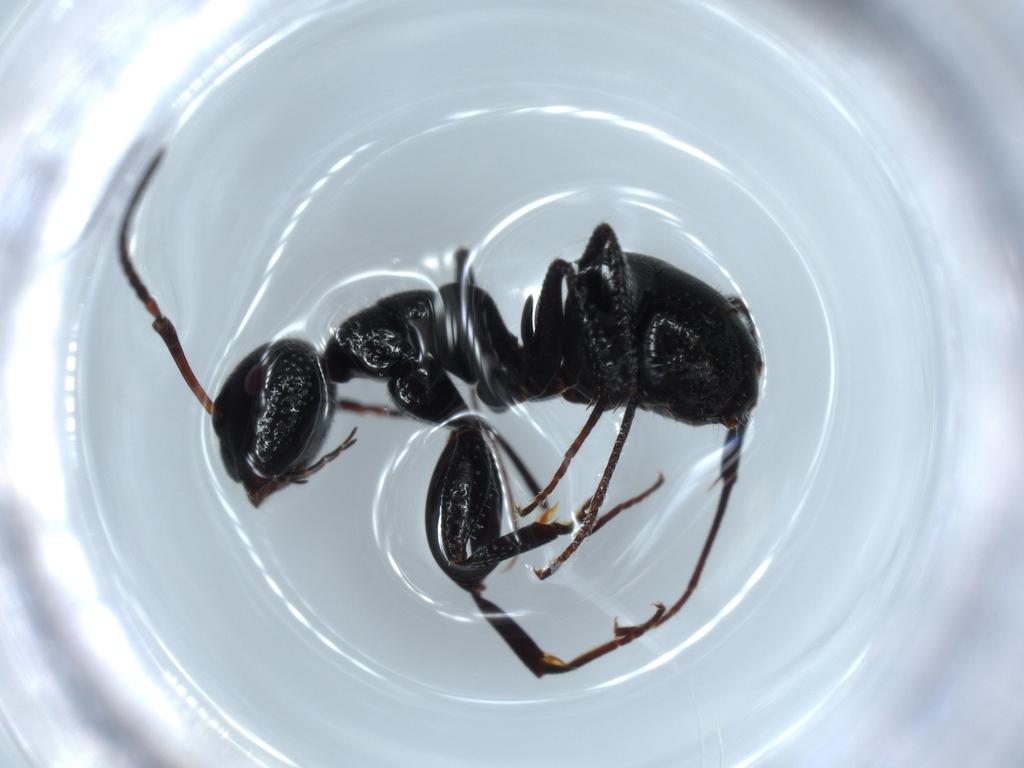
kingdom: Animalia
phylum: Arthropoda
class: Insecta
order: Hymenoptera
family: Formicidae
